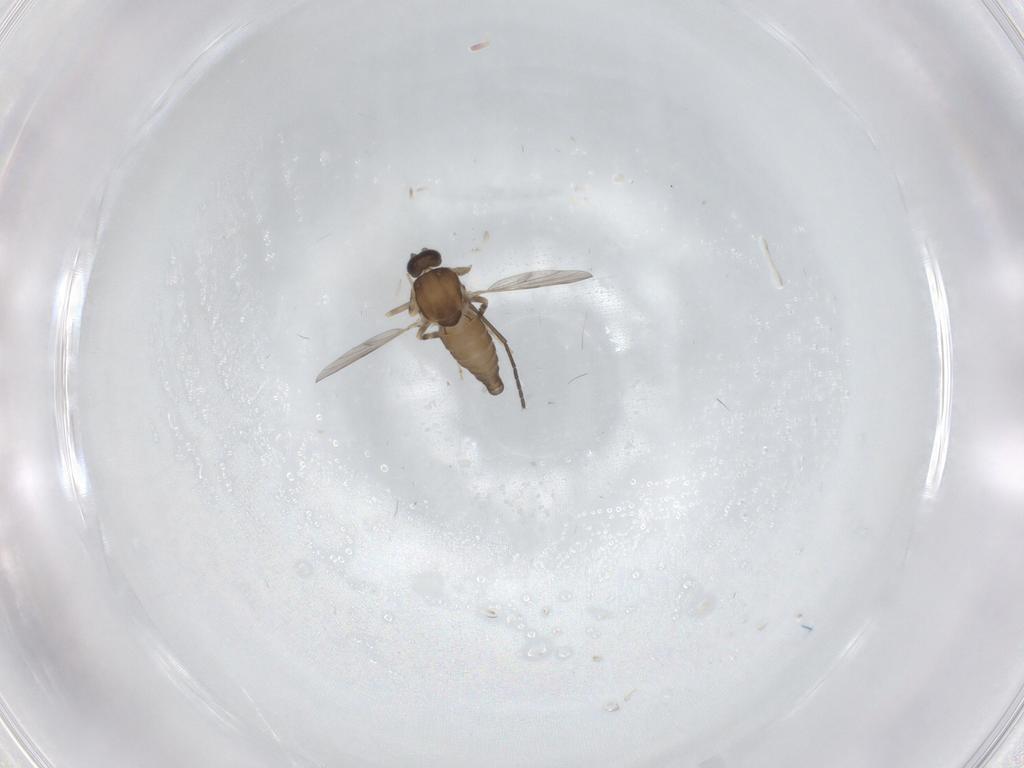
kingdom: Animalia
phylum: Arthropoda
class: Insecta
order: Diptera
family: Ceratopogonidae
